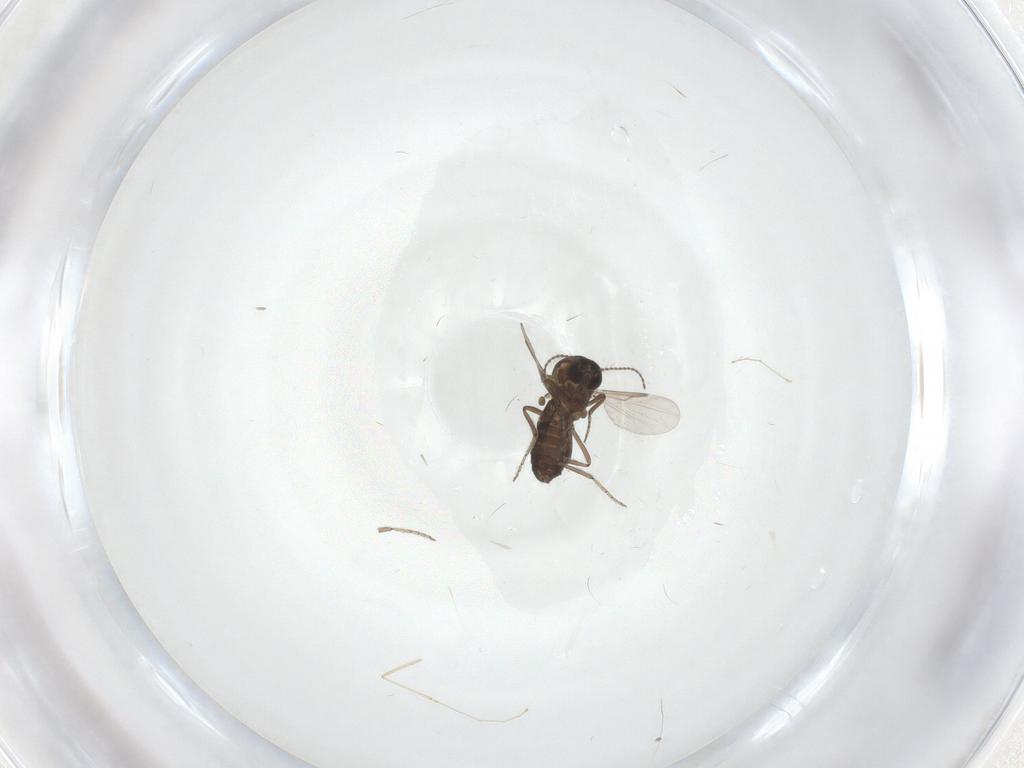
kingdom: Animalia
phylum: Arthropoda
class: Insecta
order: Diptera
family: Ceratopogonidae
